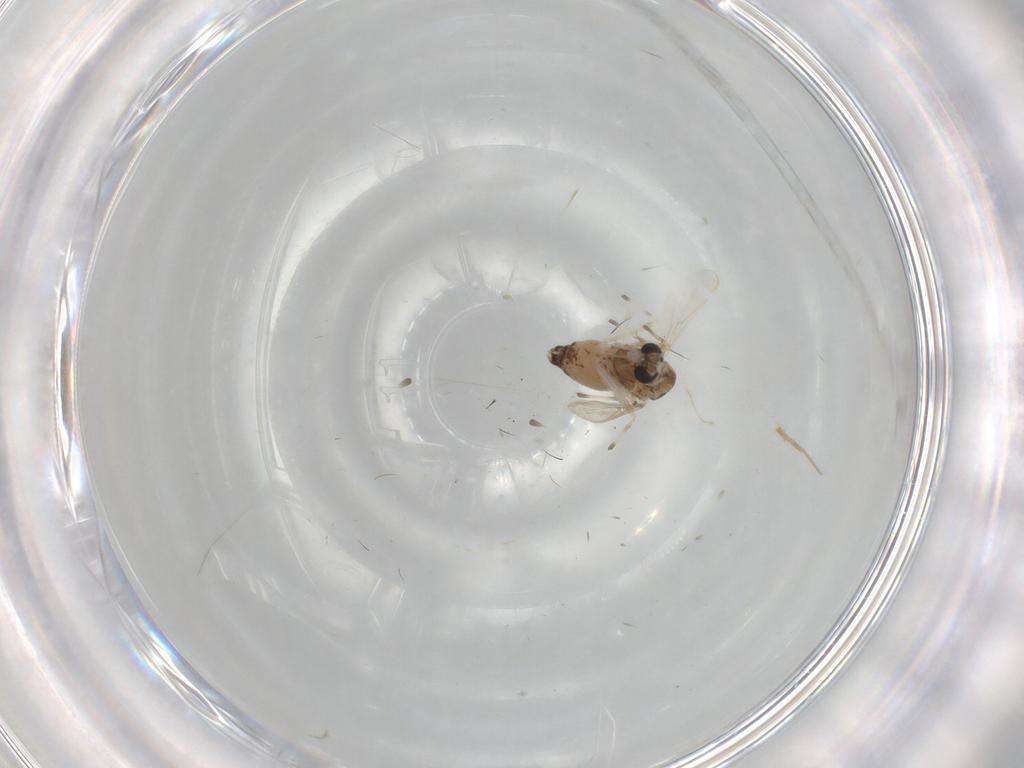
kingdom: Animalia
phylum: Arthropoda
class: Insecta
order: Diptera
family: Chironomidae
